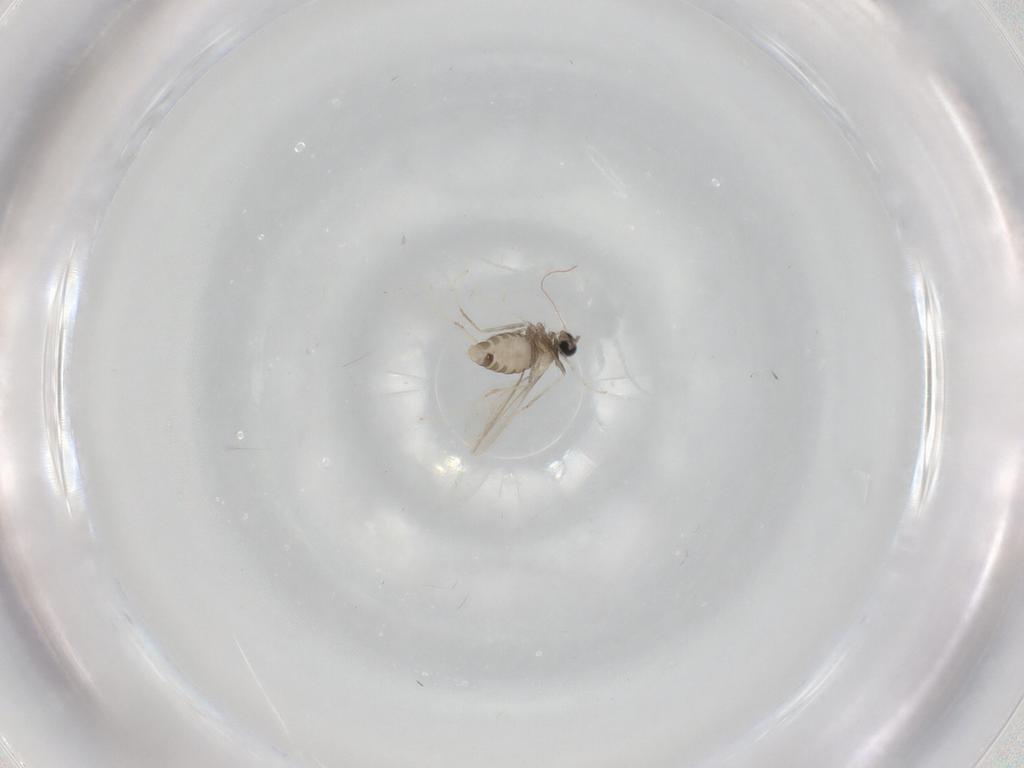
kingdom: Animalia
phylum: Arthropoda
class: Insecta
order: Diptera
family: Cecidomyiidae
